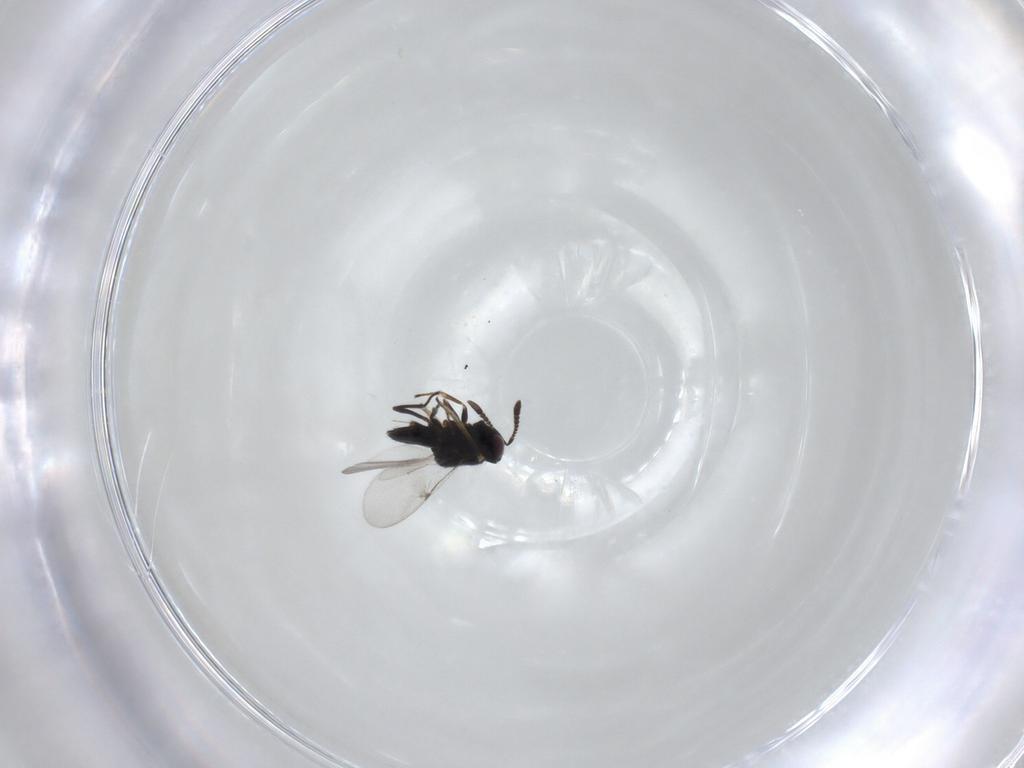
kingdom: Animalia
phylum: Arthropoda
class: Insecta
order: Hymenoptera
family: Encyrtidae
